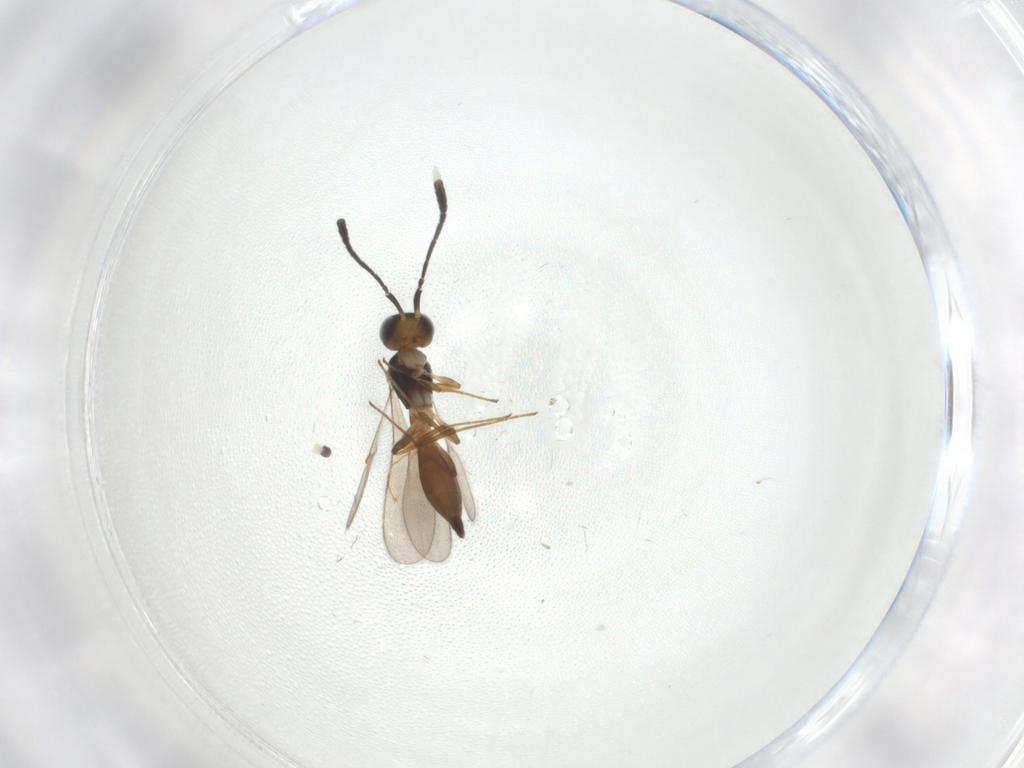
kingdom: Animalia
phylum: Arthropoda
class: Insecta
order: Hymenoptera
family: Scelionidae
